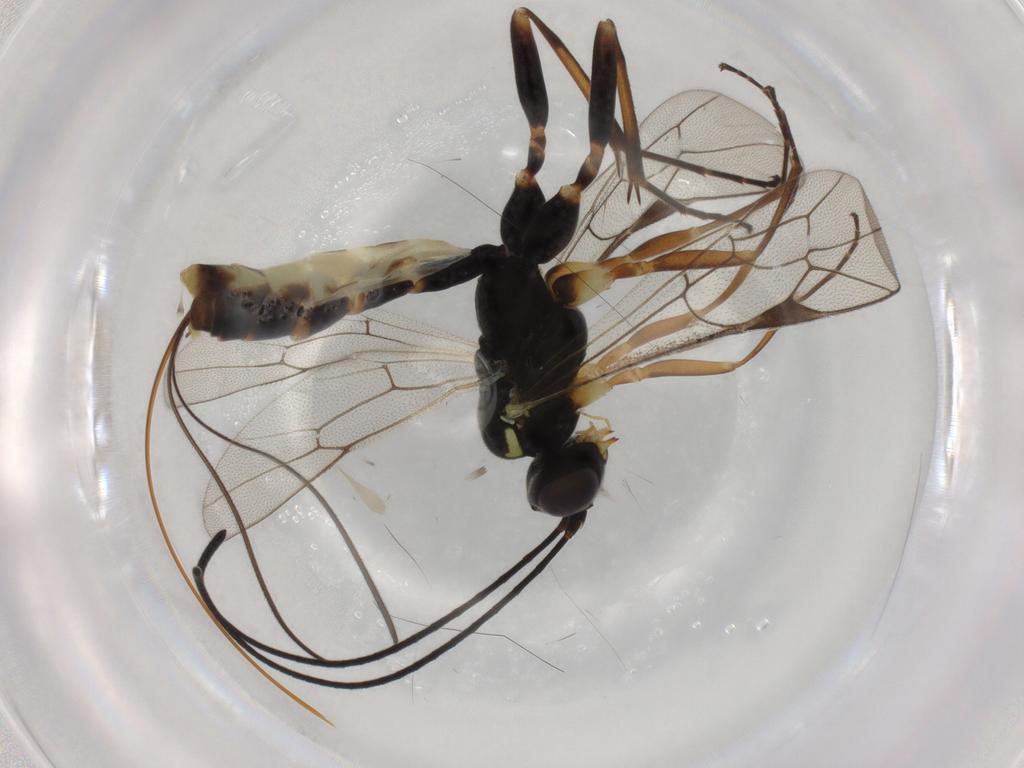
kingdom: Animalia
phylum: Arthropoda
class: Insecta
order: Hymenoptera
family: Ichneumonidae
